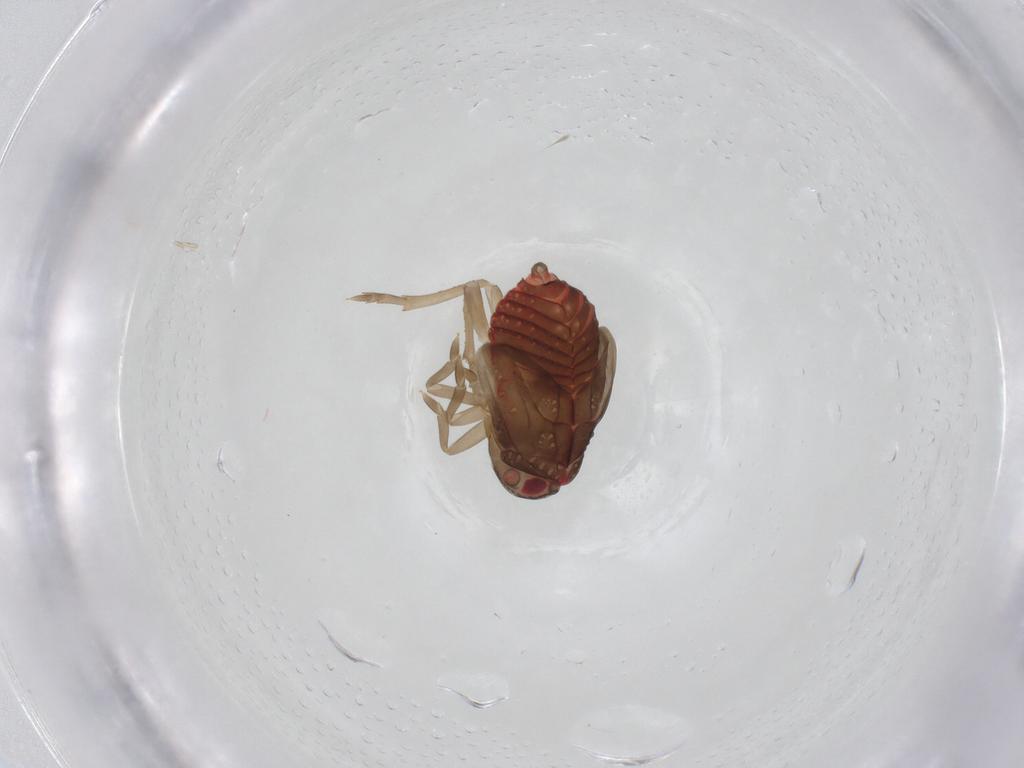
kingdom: Animalia
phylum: Arthropoda
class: Insecta
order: Hemiptera
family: Derbidae
